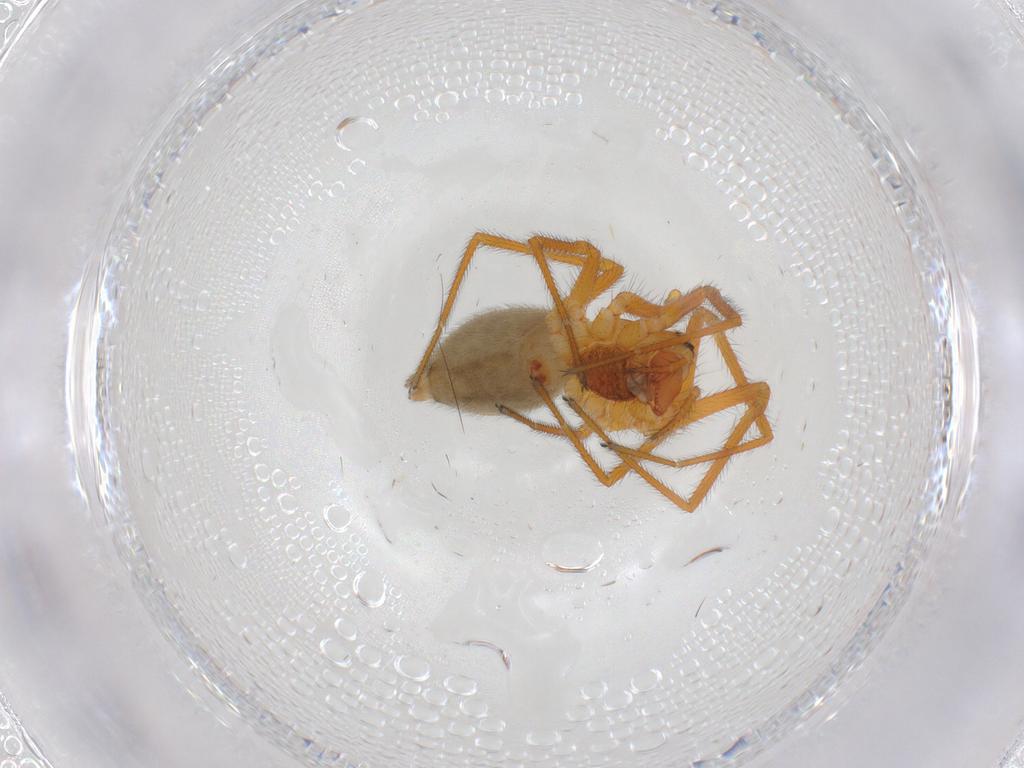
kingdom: Animalia
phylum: Arthropoda
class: Arachnida
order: Araneae
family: Linyphiidae
